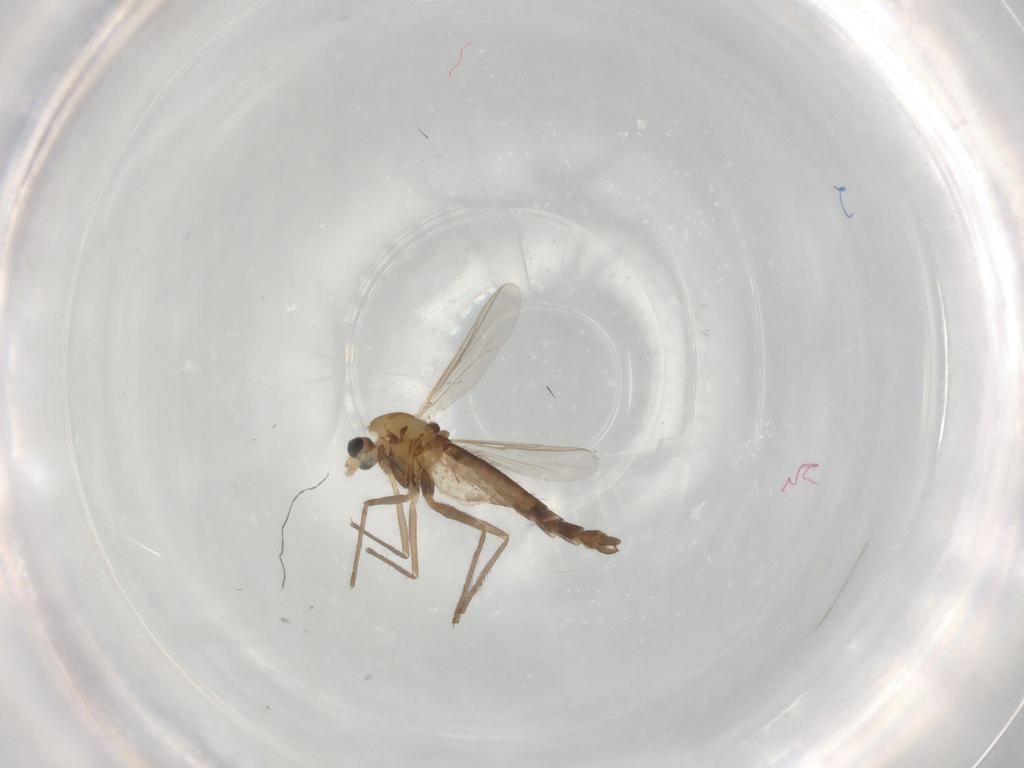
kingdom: Animalia
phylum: Arthropoda
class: Insecta
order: Diptera
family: Chironomidae
